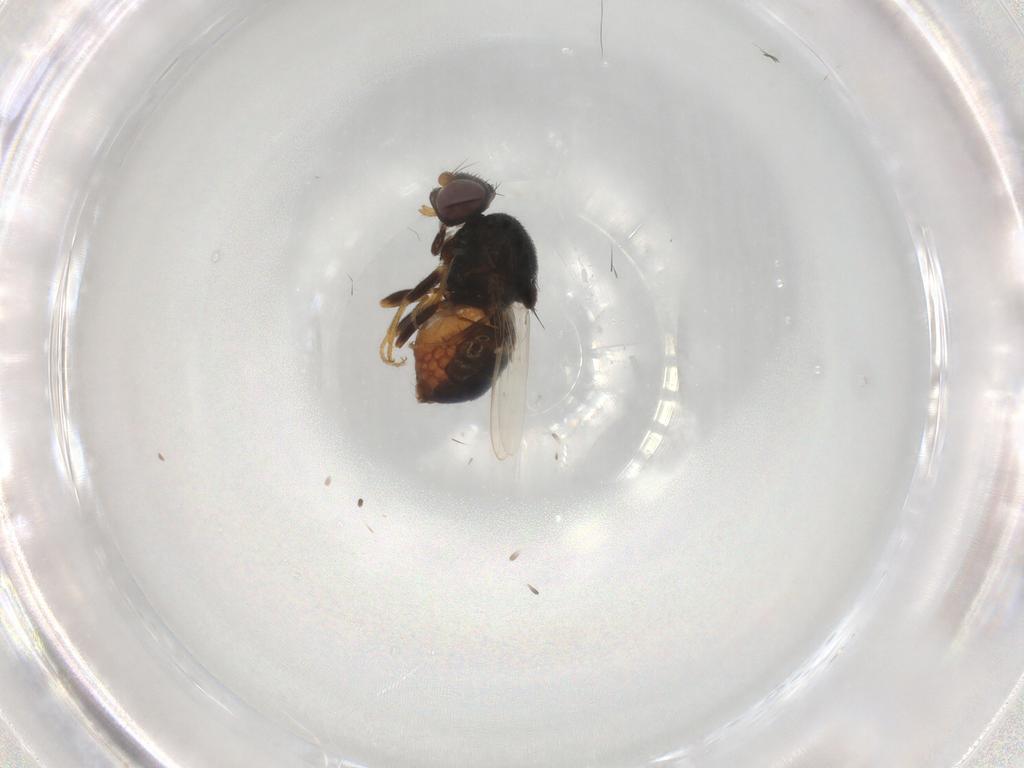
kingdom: Animalia
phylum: Arthropoda
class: Insecta
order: Diptera
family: Chloropidae
